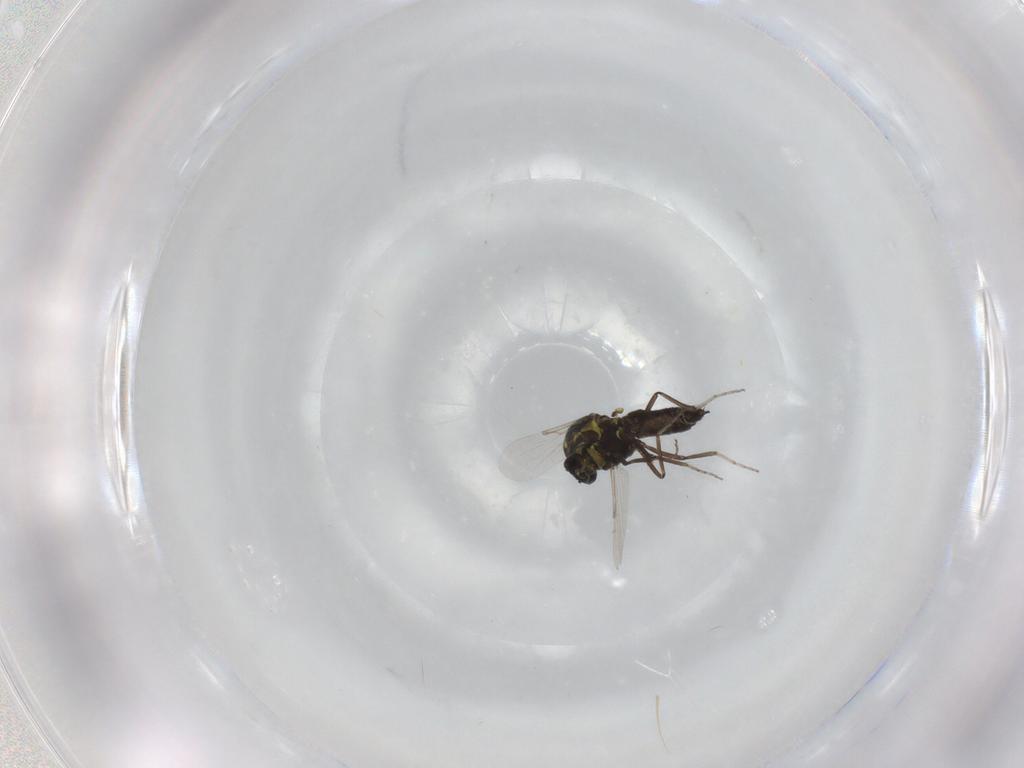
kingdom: Animalia
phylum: Arthropoda
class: Insecta
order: Diptera
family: Ceratopogonidae
